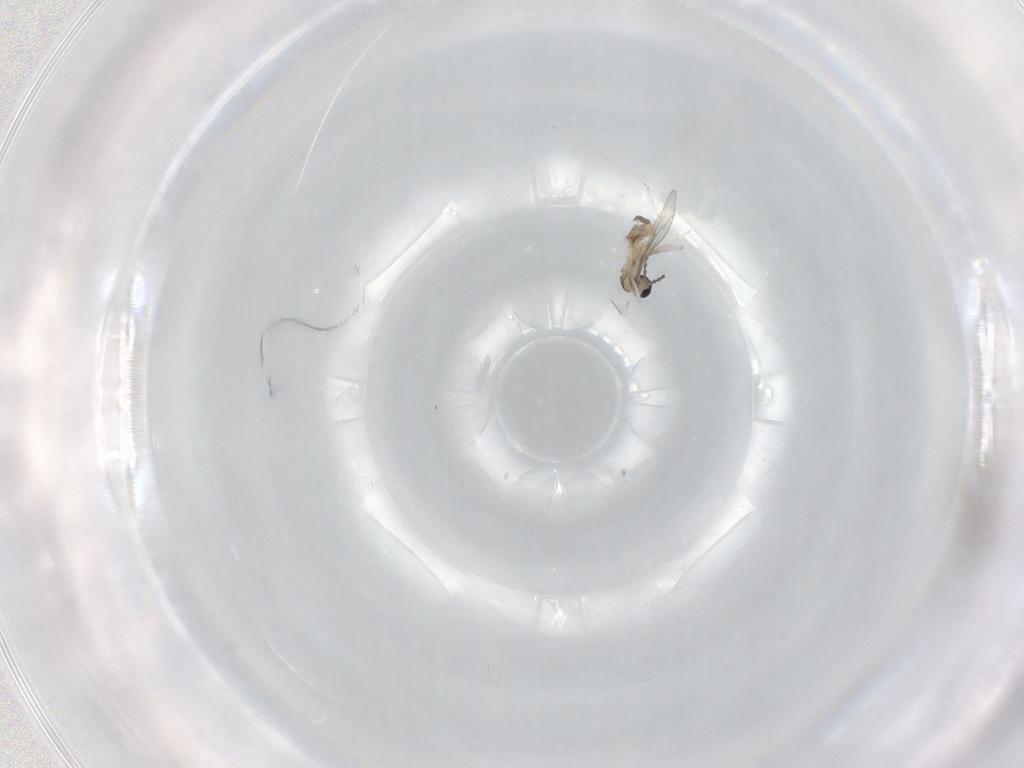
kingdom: Animalia
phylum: Arthropoda
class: Insecta
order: Diptera
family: Cecidomyiidae
